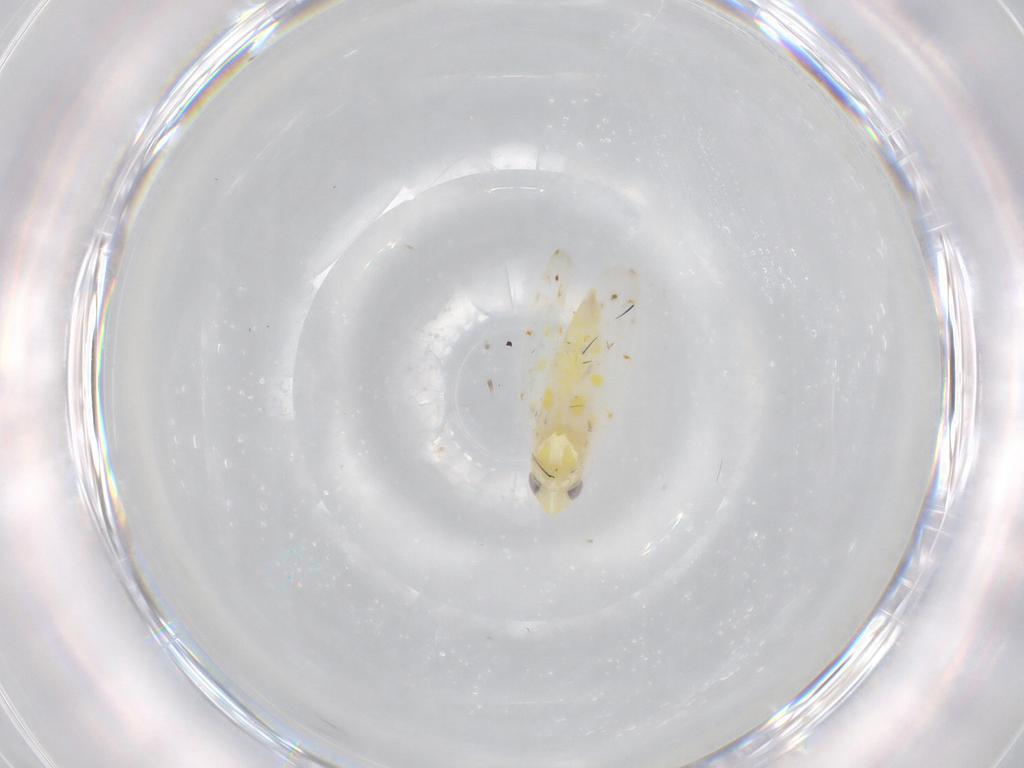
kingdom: Animalia
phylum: Arthropoda
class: Insecta
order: Hemiptera
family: Cicadellidae
